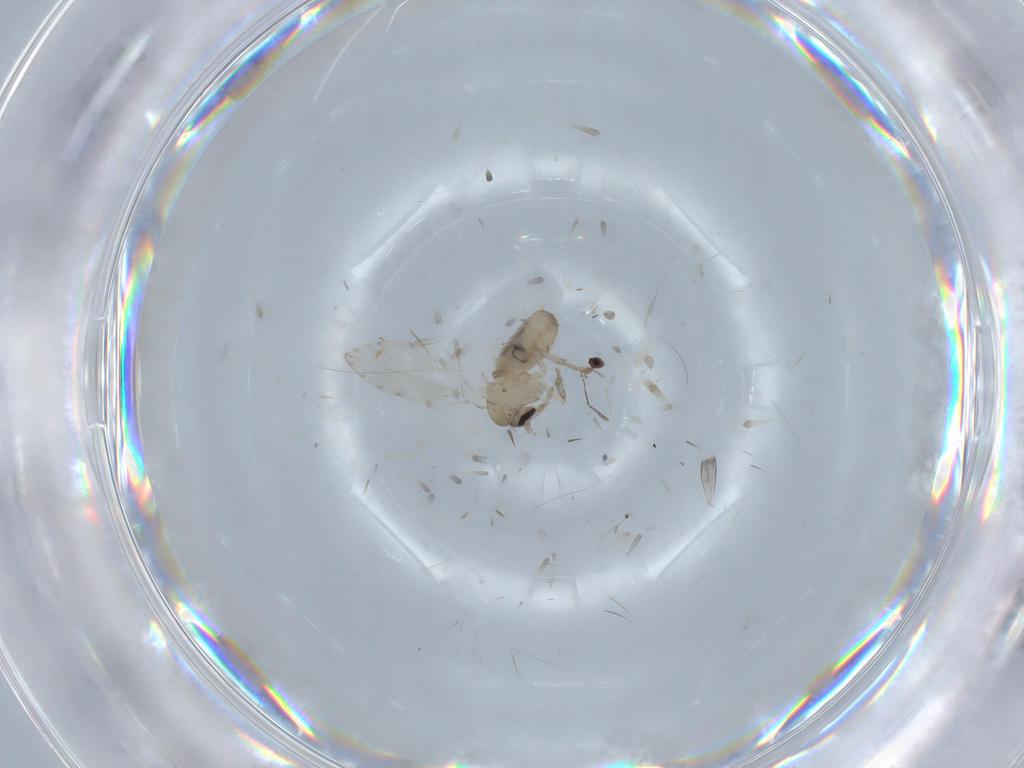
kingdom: Animalia
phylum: Arthropoda
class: Insecta
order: Diptera
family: Psychodidae
